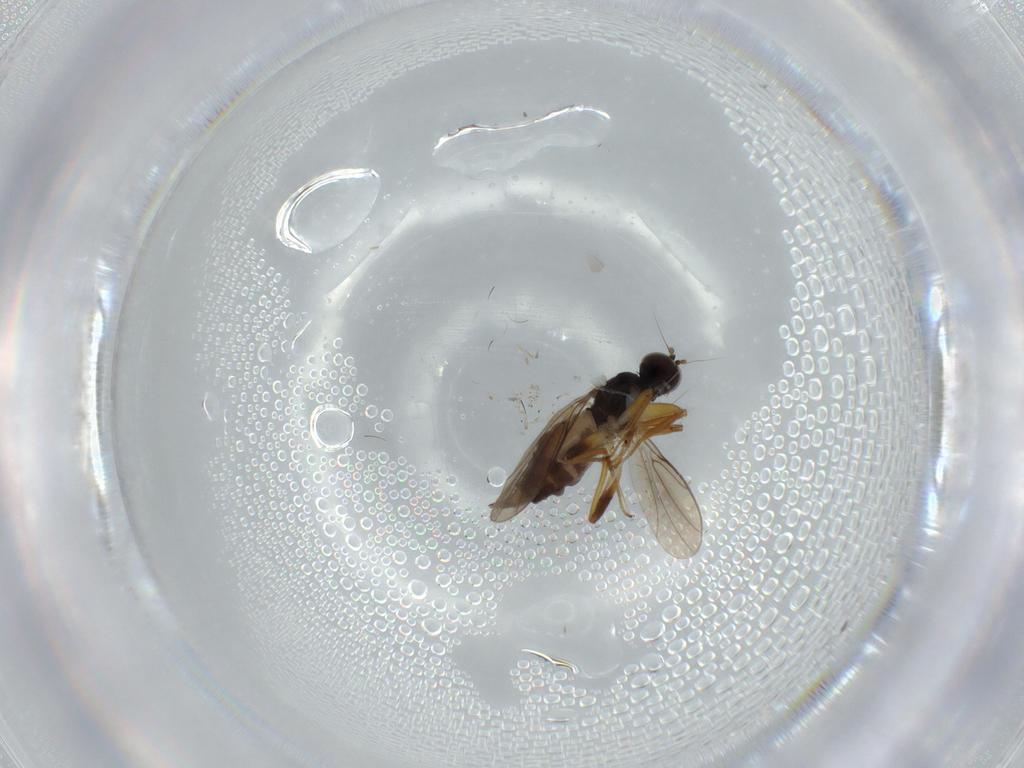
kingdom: Animalia
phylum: Arthropoda
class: Insecta
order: Diptera
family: Hybotidae
